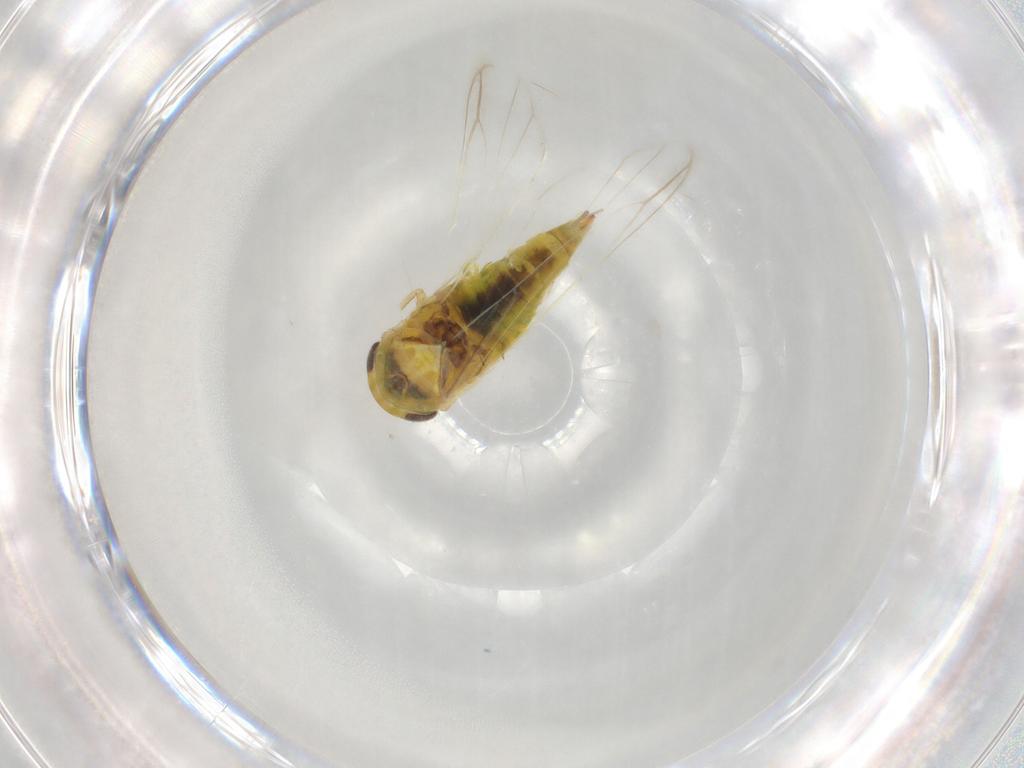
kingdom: Animalia
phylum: Arthropoda
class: Insecta
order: Hemiptera
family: Cicadellidae
